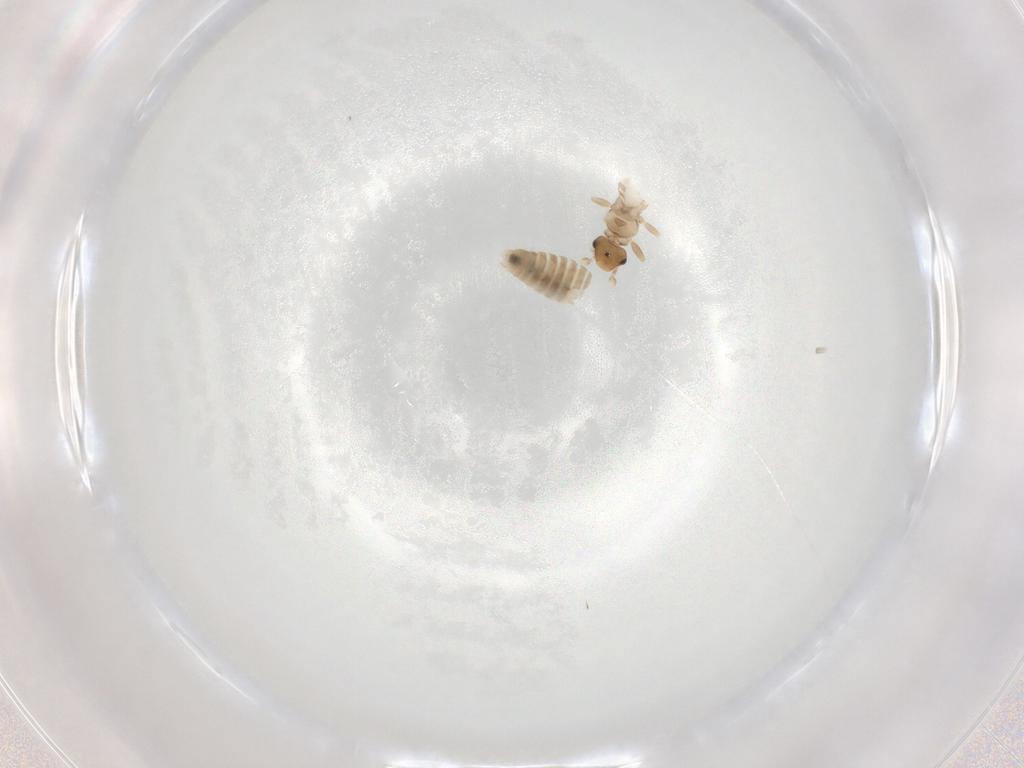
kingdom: Animalia
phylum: Arthropoda
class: Insecta
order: Psocodea
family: Liposcelididae
